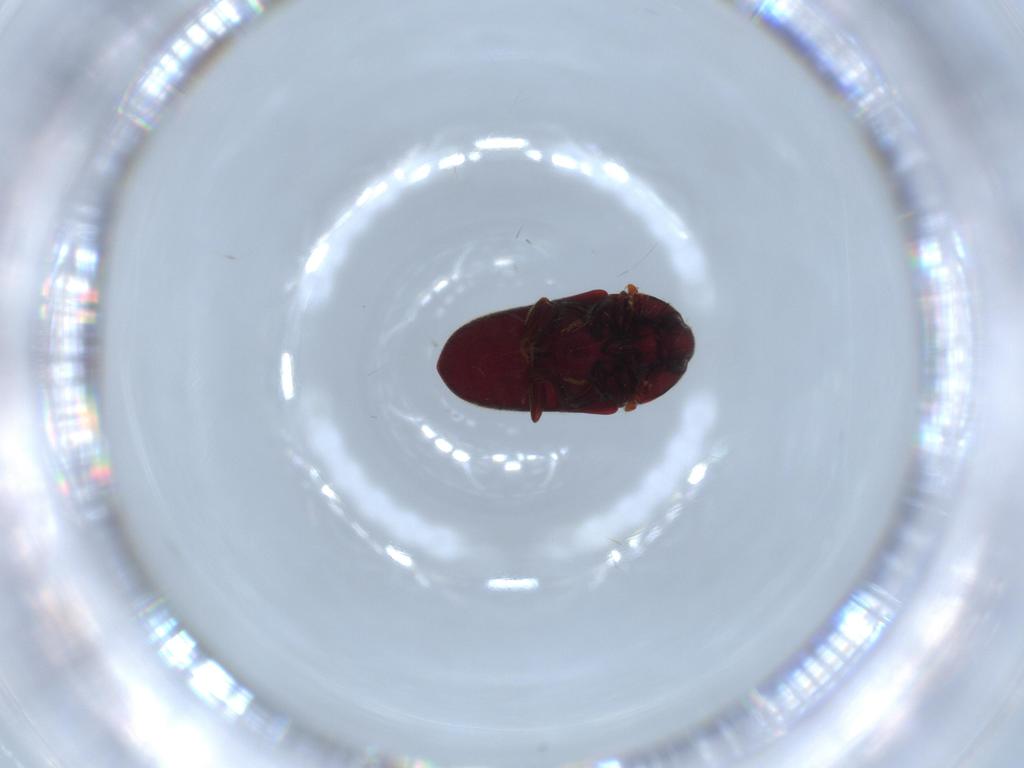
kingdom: Animalia
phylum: Arthropoda
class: Insecta
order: Coleoptera
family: Throscidae
